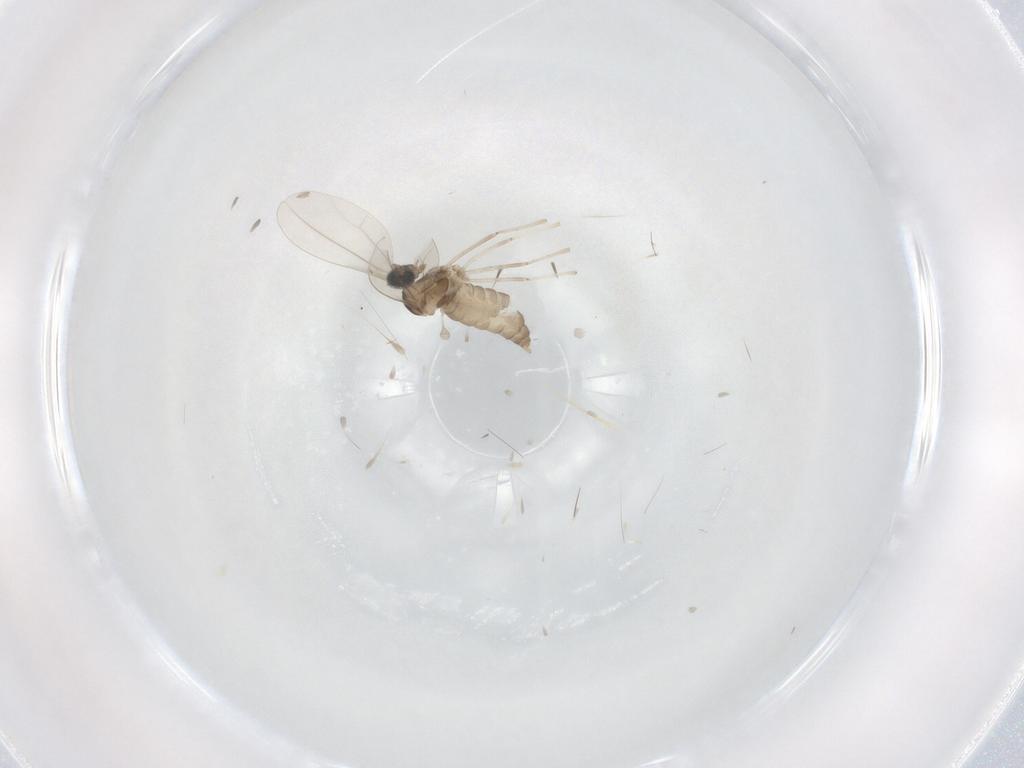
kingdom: Animalia
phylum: Arthropoda
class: Insecta
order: Diptera
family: Cecidomyiidae
